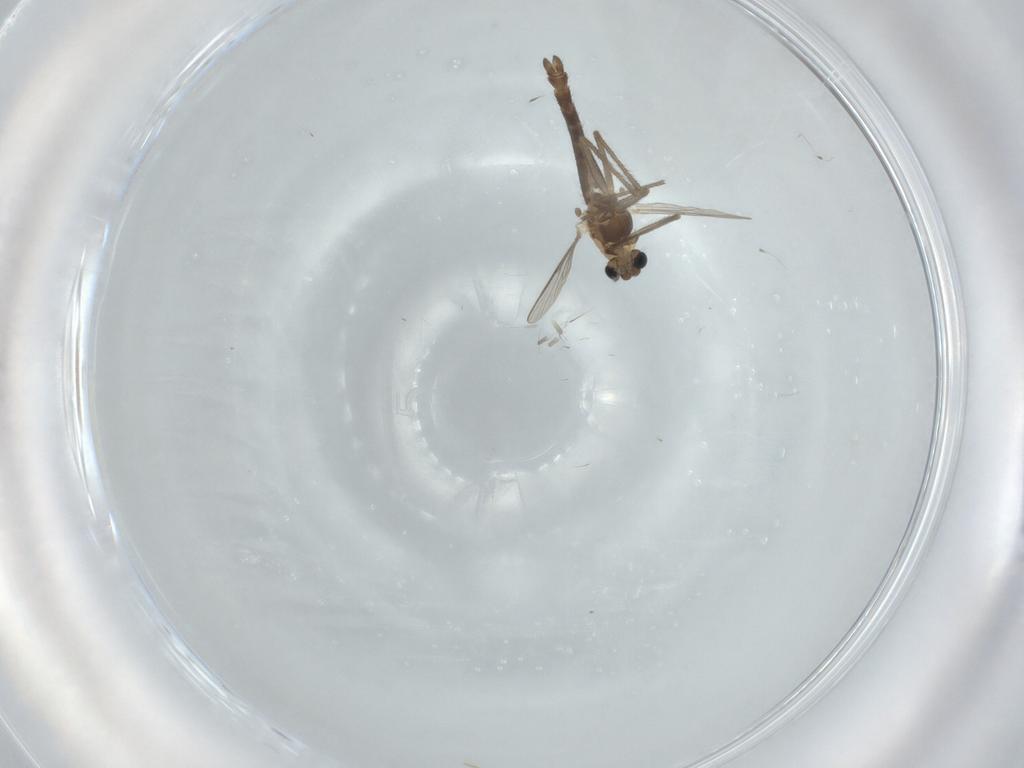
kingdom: Animalia
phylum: Arthropoda
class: Insecta
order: Diptera
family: Chironomidae
